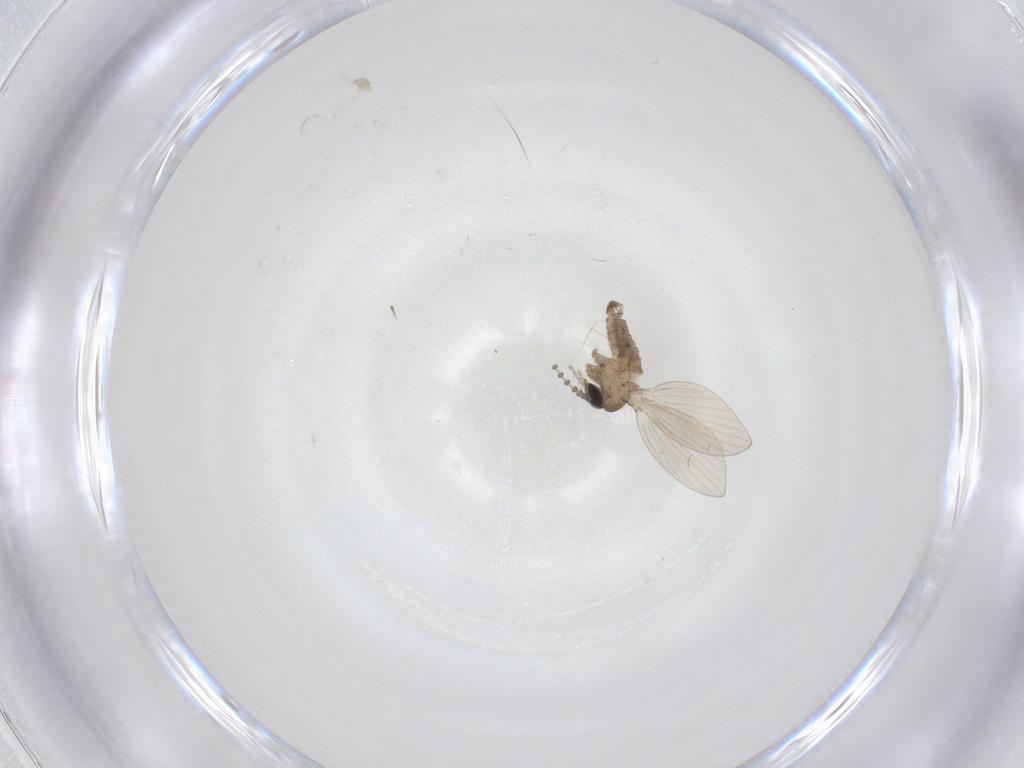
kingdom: Animalia
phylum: Arthropoda
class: Insecta
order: Diptera
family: Psychodidae
